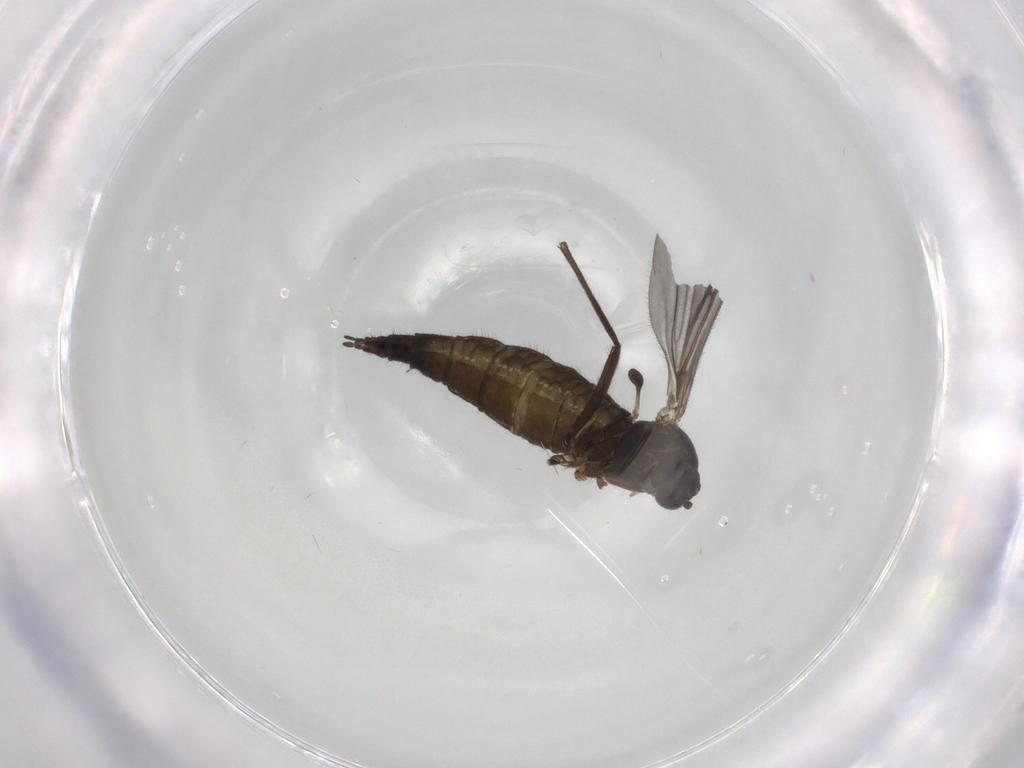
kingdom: Animalia
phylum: Arthropoda
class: Insecta
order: Diptera
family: Sciaridae
